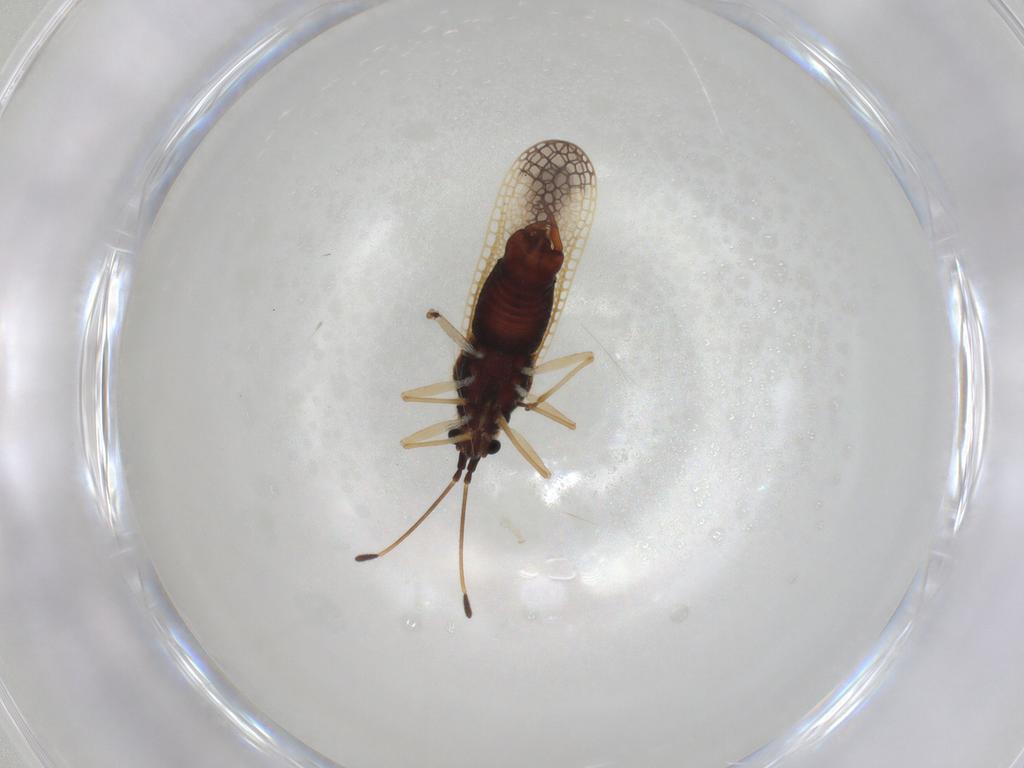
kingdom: Animalia
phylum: Arthropoda
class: Insecta
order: Hemiptera
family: Tingidae
